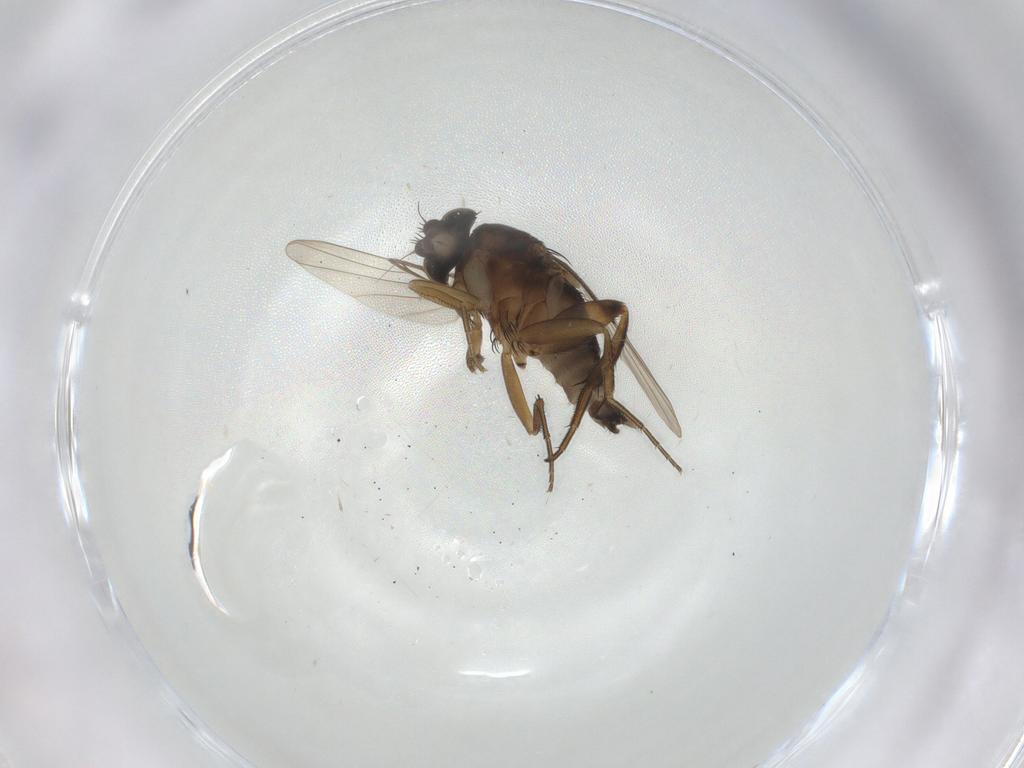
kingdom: Animalia
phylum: Arthropoda
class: Insecta
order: Diptera
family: Phoridae
